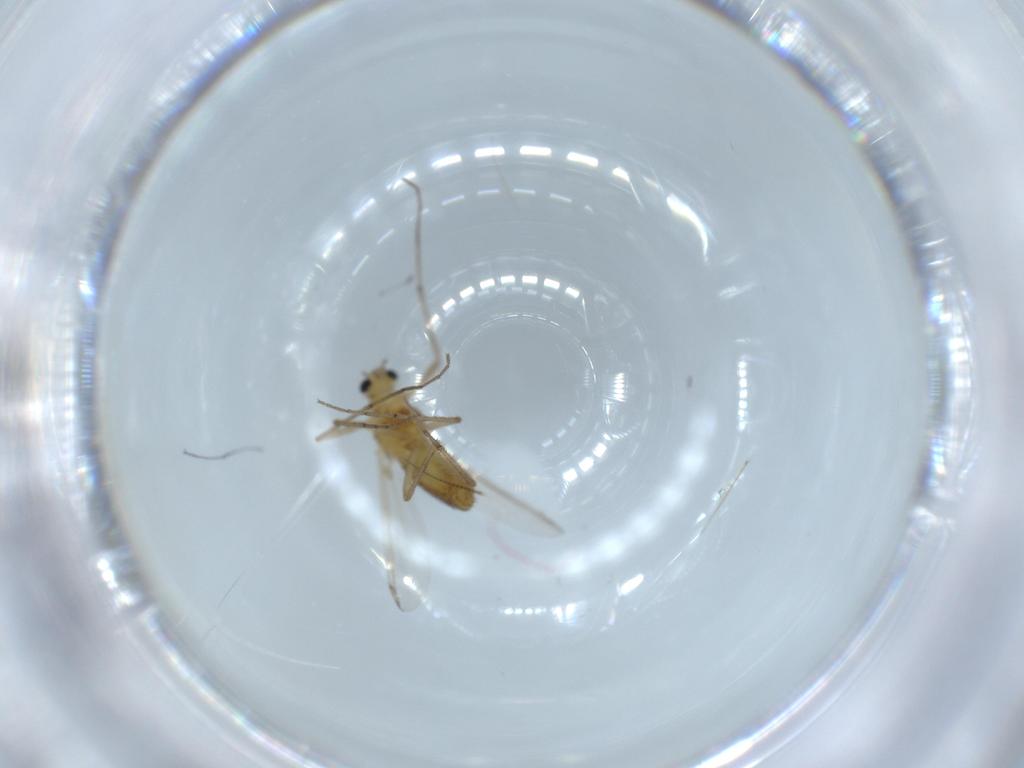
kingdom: Animalia
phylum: Arthropoda
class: Insecta
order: Diptera
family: Chironomidae
